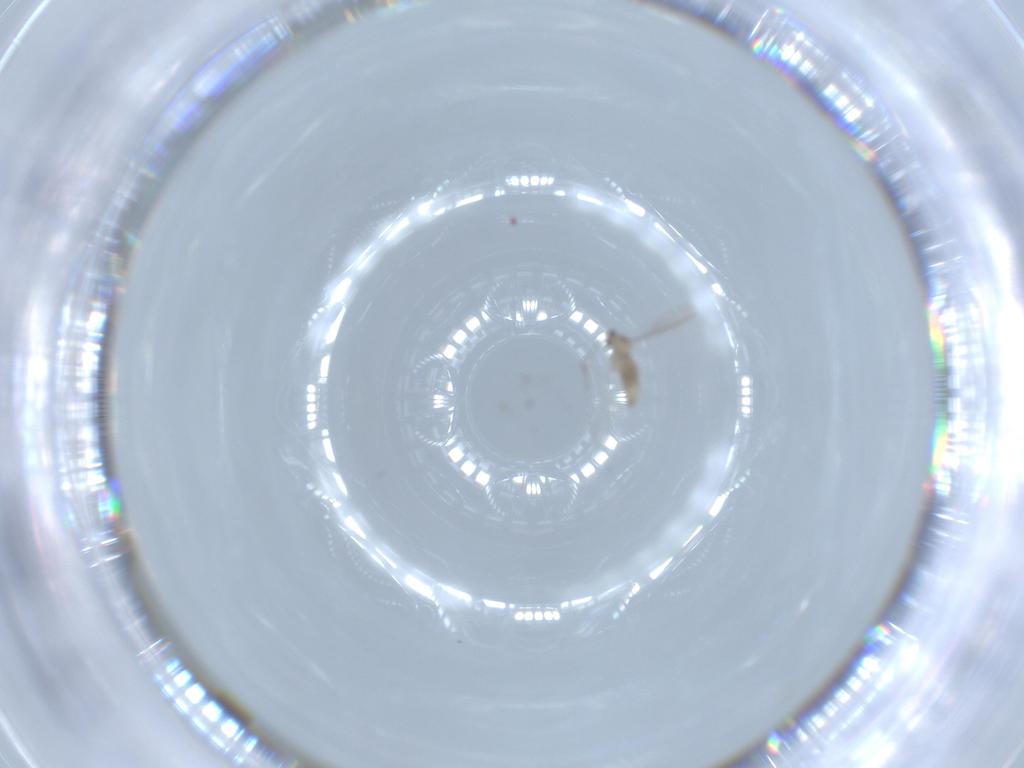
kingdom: Animalia
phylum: Arthropoda
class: Insecta
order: Diptera
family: Cecidomyiidae
